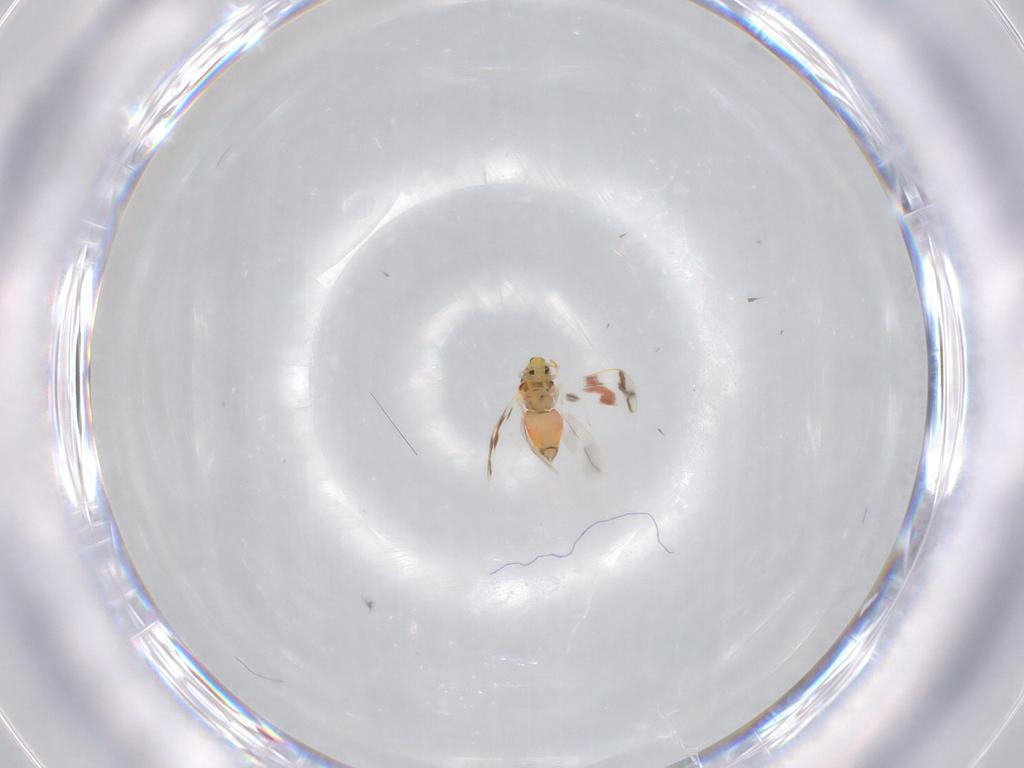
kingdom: Animalia
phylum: Arthropoda
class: Insecta
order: Hemiptera
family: Aleyrodidae
